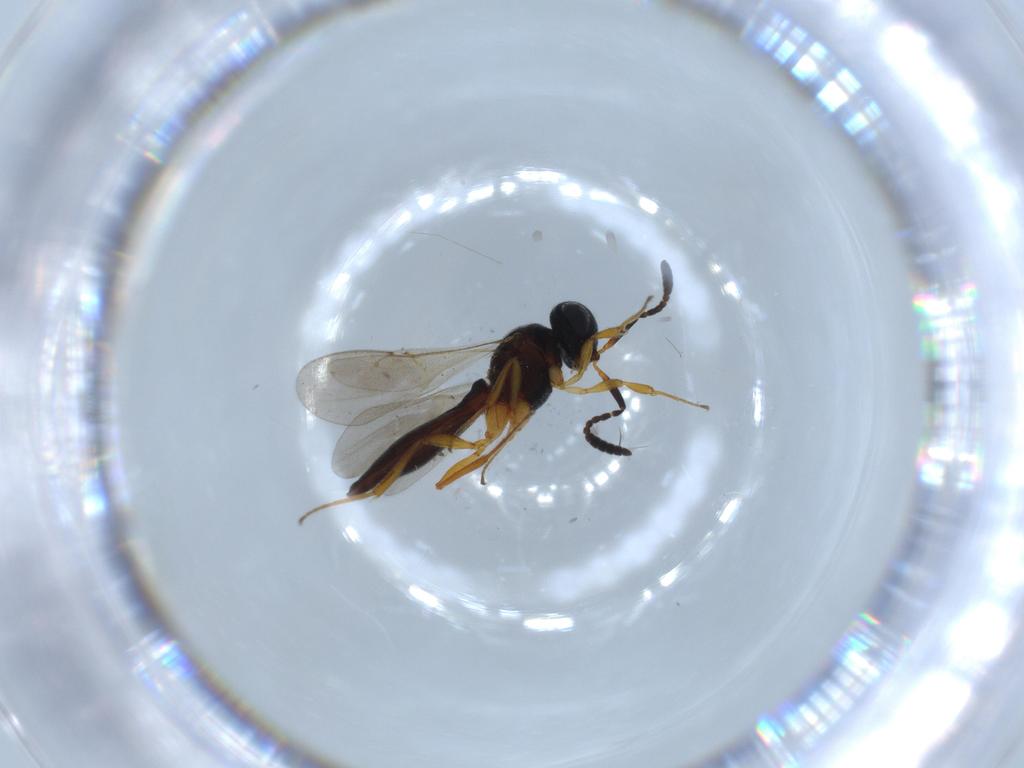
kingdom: Animalia
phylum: Arthropoda
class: Insecta
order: Hymenoptera
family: Scelionidae
